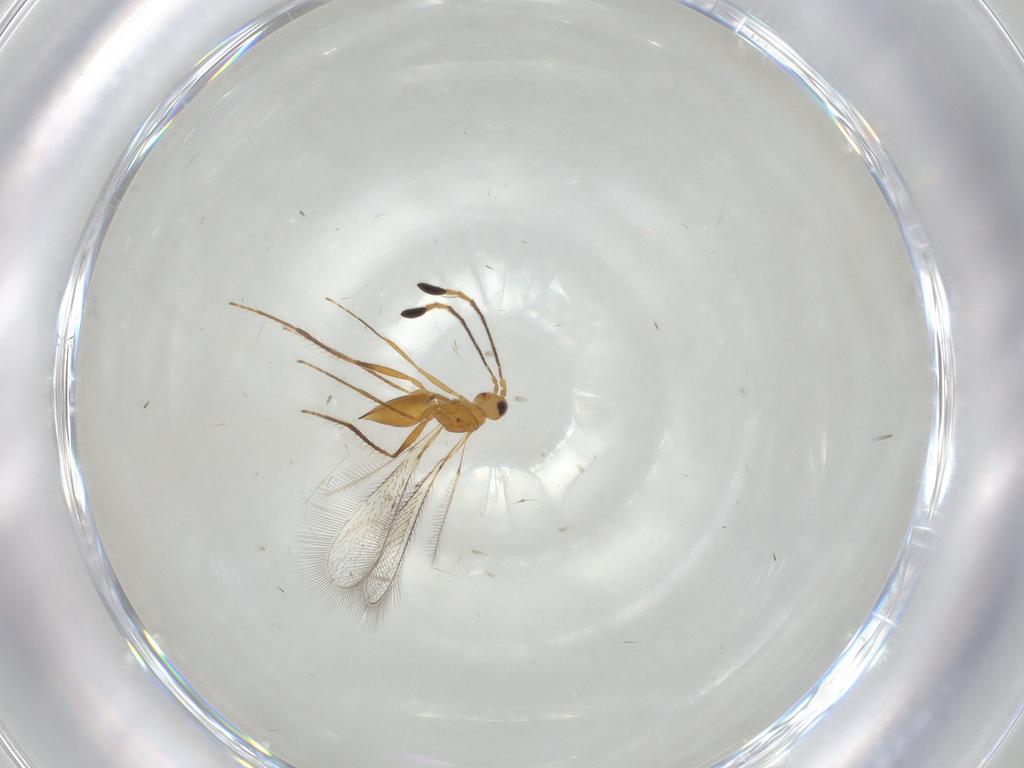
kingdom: Animalia
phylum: Arthropoda
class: Insecta
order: Hymenoptera
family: Mymaridae
